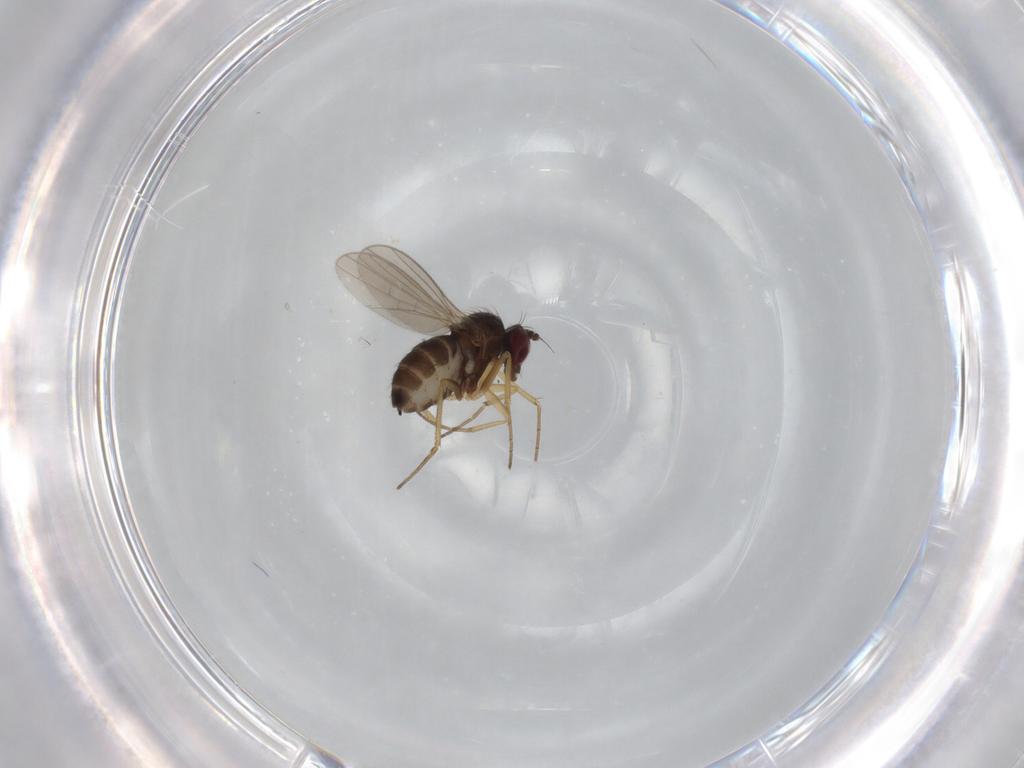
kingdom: Animalia
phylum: Arthropoda
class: Insecta
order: Diptera
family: Dolichopodidae
